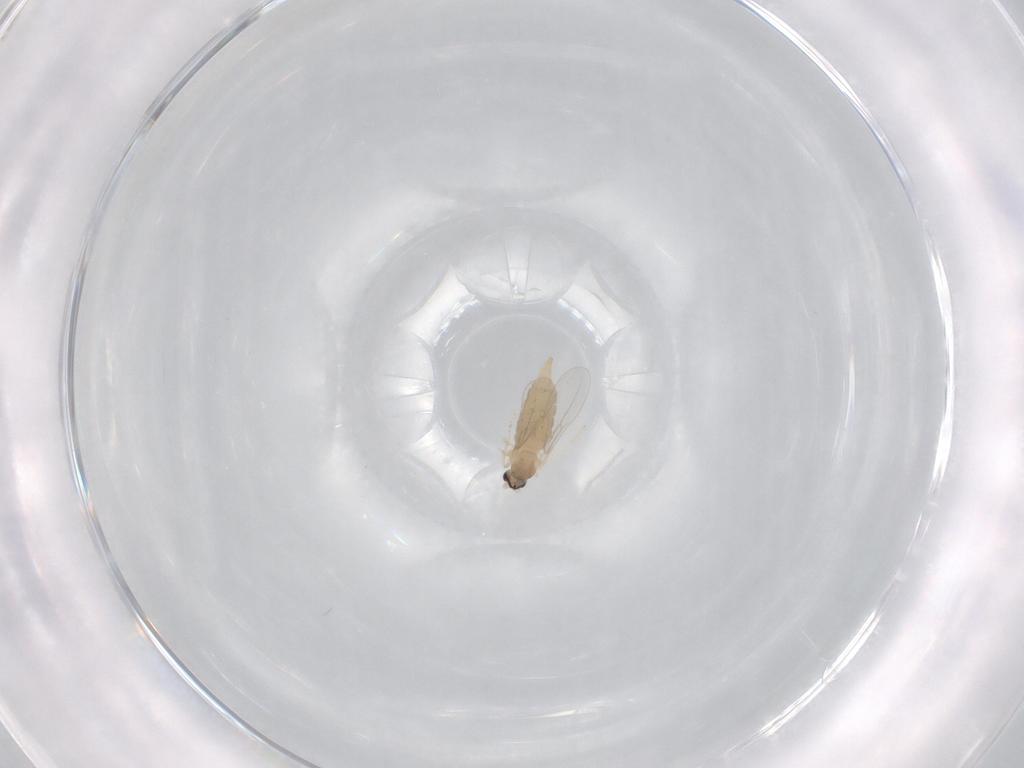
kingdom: Animalia
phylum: Arthropoda
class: Insecta
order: Diptera
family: Cecidomyiidae
